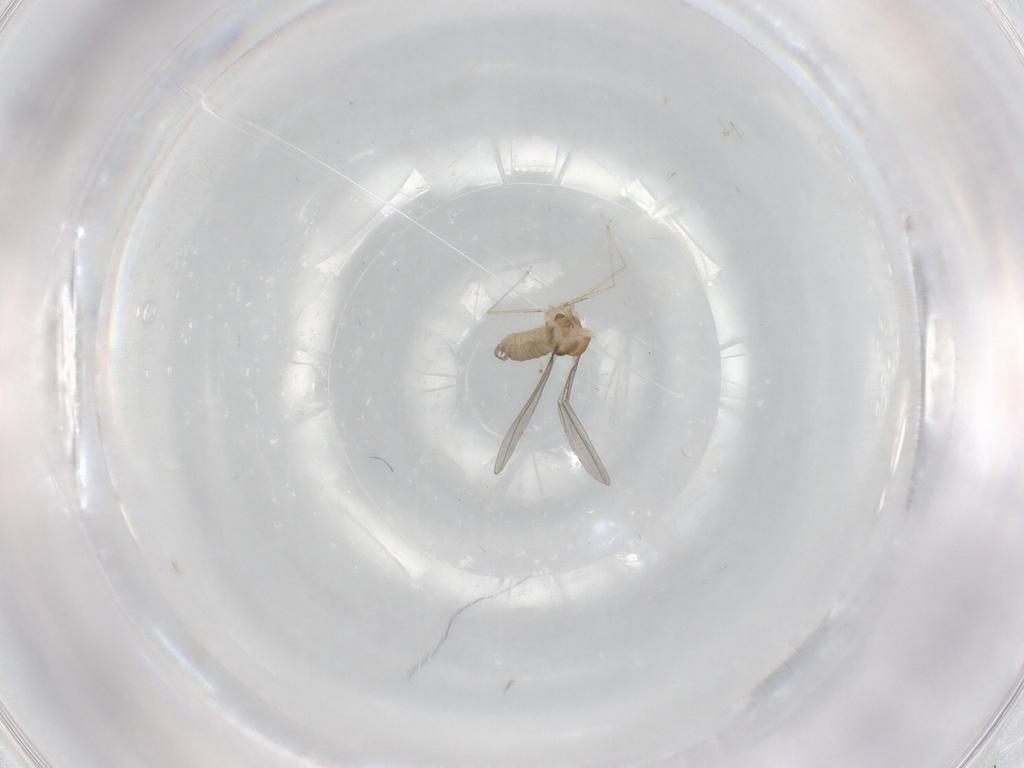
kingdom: Animalia
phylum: Arthropoda
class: Insecta
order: Diptera
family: Cecidomyiidae
